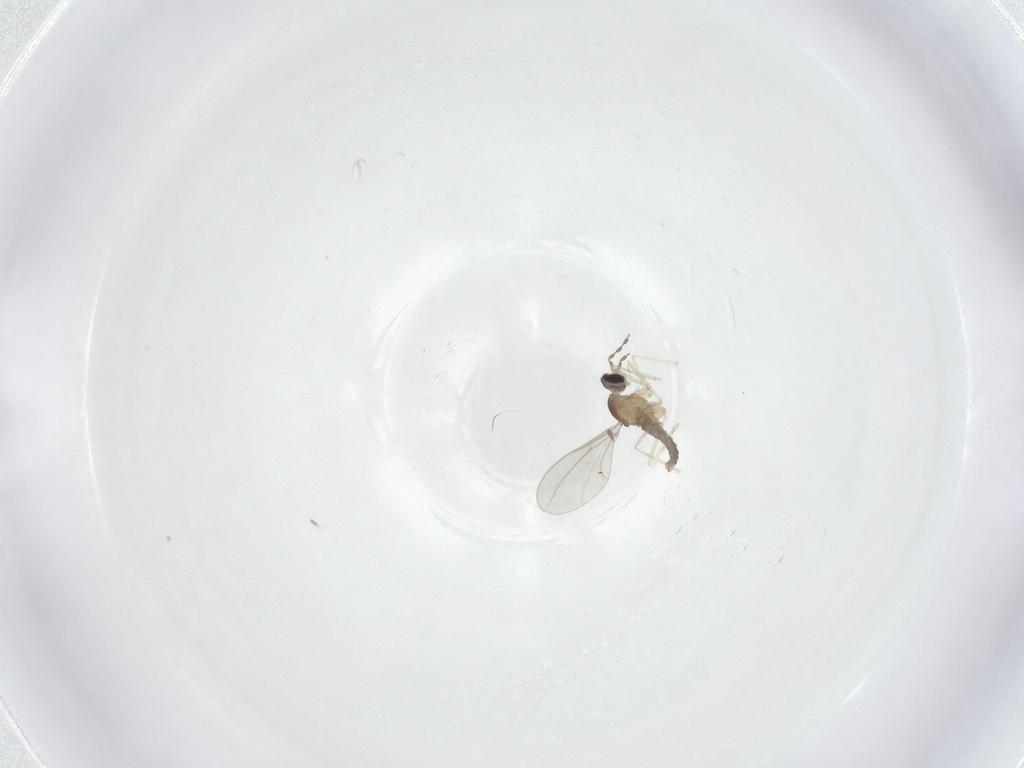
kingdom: Animalia
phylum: Arthropoda
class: Insecta
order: Diptera
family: Cecidomyiidae
